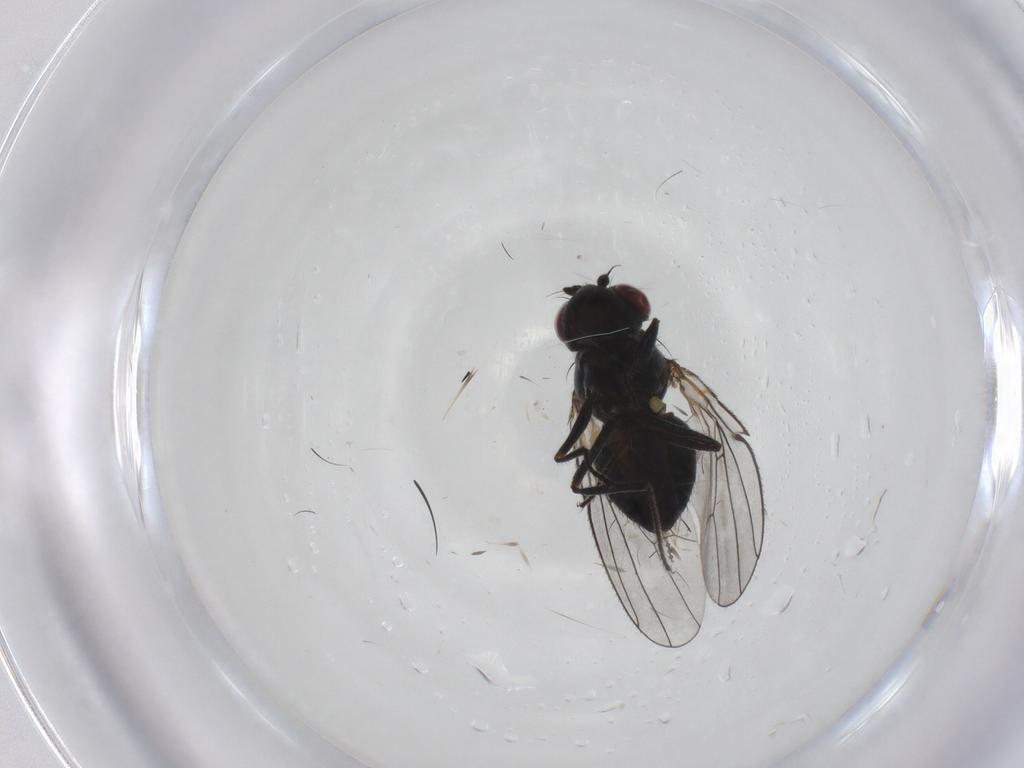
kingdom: Animalia
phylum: Arthropoda
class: Insecta
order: Diptera
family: Ephydridae
